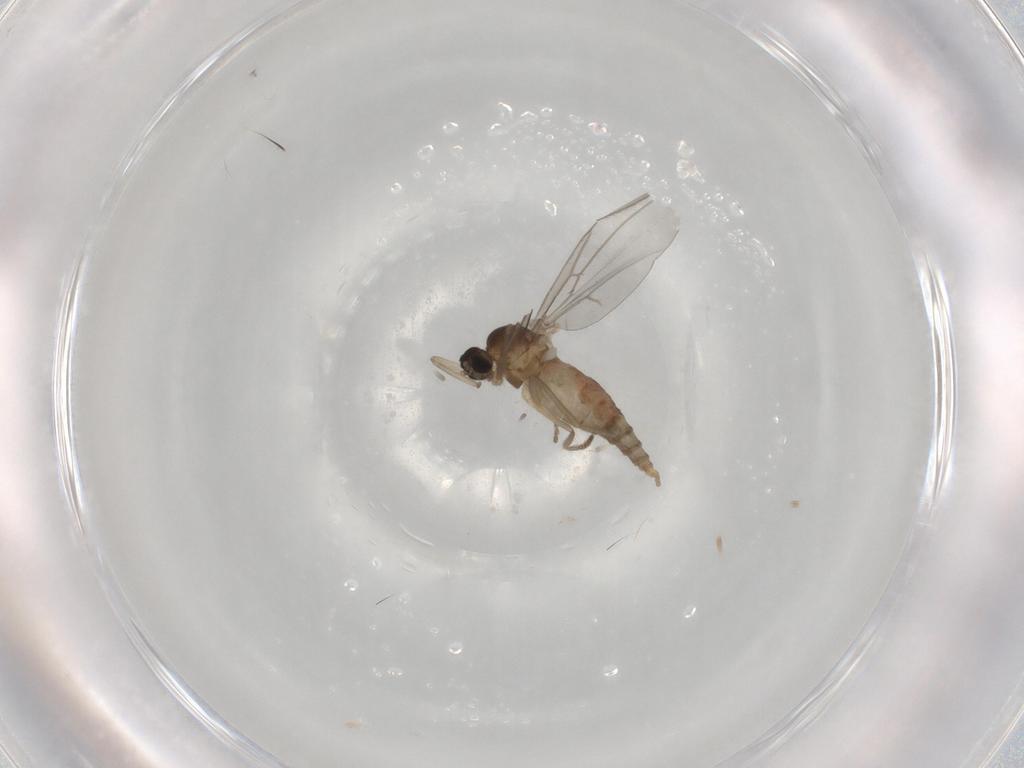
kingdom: Animalia
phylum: Arthropoda
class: Insecta
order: Diptera
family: Cecidomyiidae
